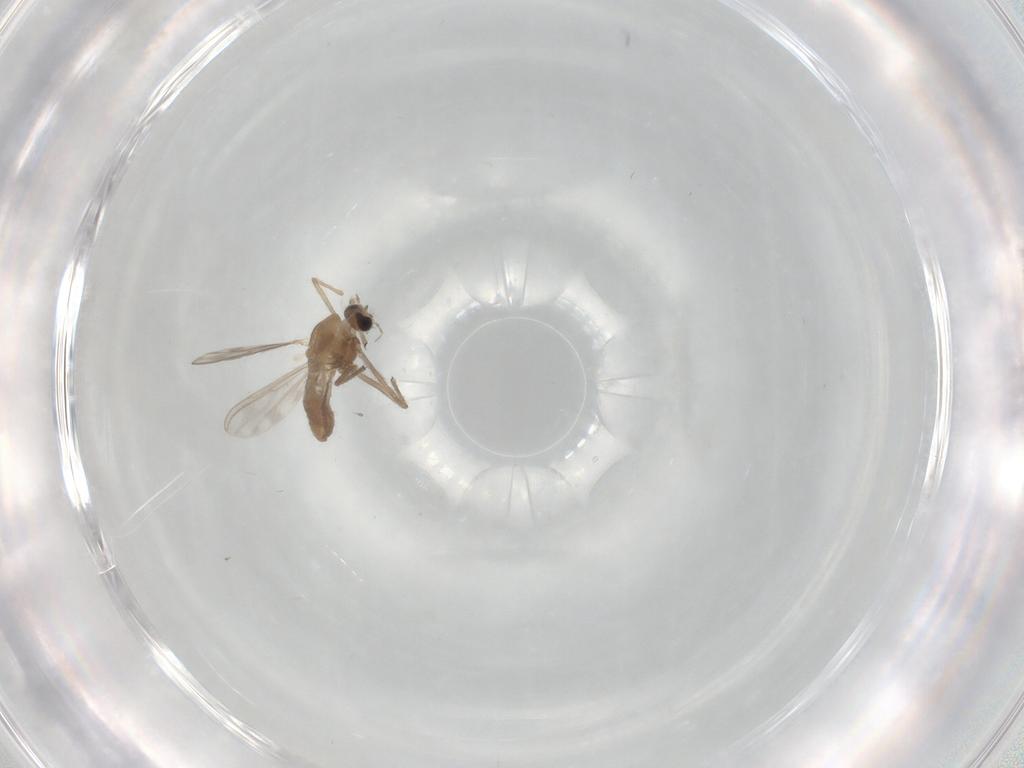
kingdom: Animalia
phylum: Arthropoda
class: Insecta
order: Diptera
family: Chironomidae
